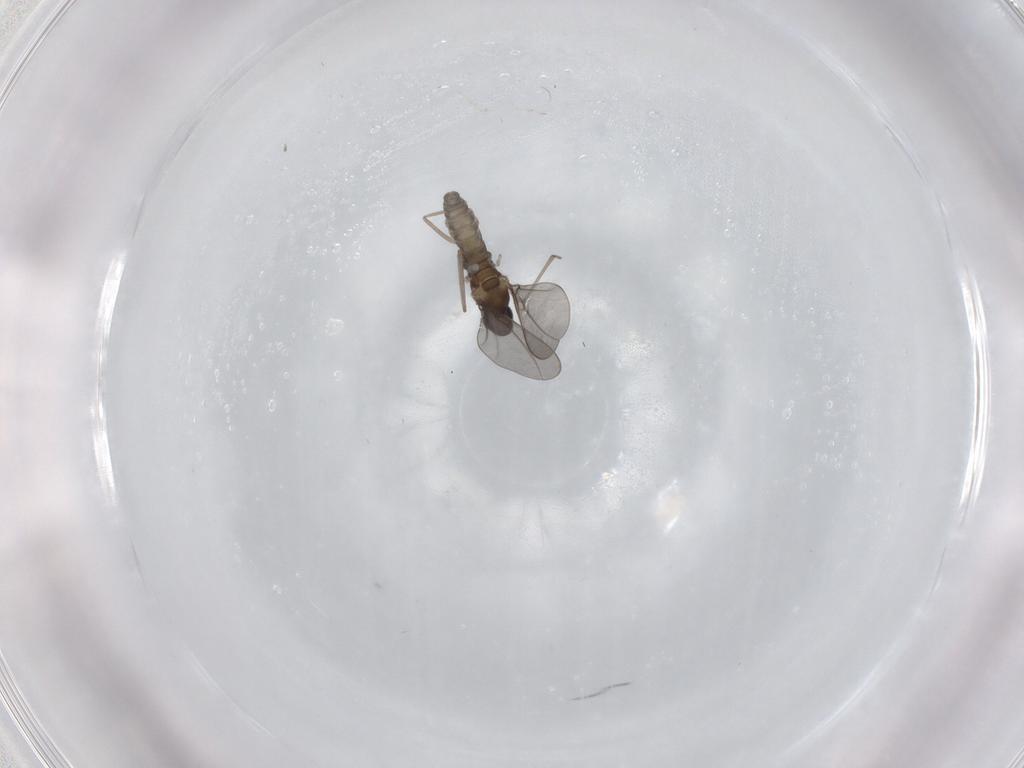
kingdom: Animalia
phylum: Arthropoda
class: Insecta
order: Diptera
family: Cecidomyiidae
